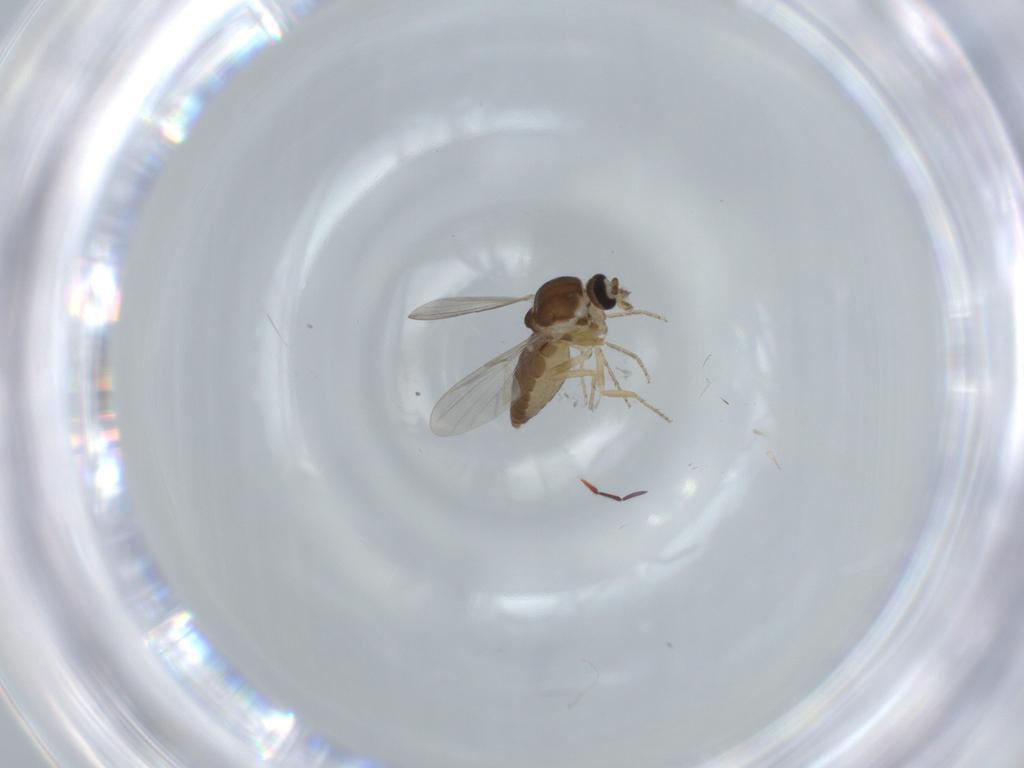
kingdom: Animalia
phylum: Arthropoda
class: Insecta
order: Diptera
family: Ceratopogonidae
